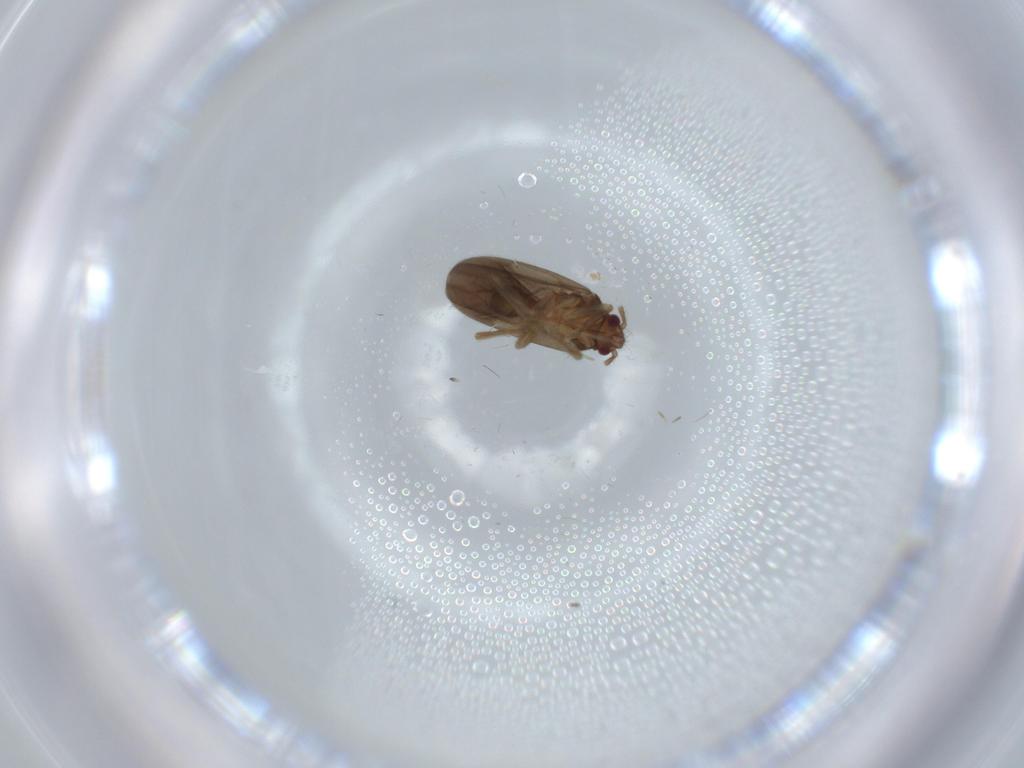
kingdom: Animalia
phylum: Arthropoda
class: Insecta
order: Hemiptera
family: Ceratocombidae
